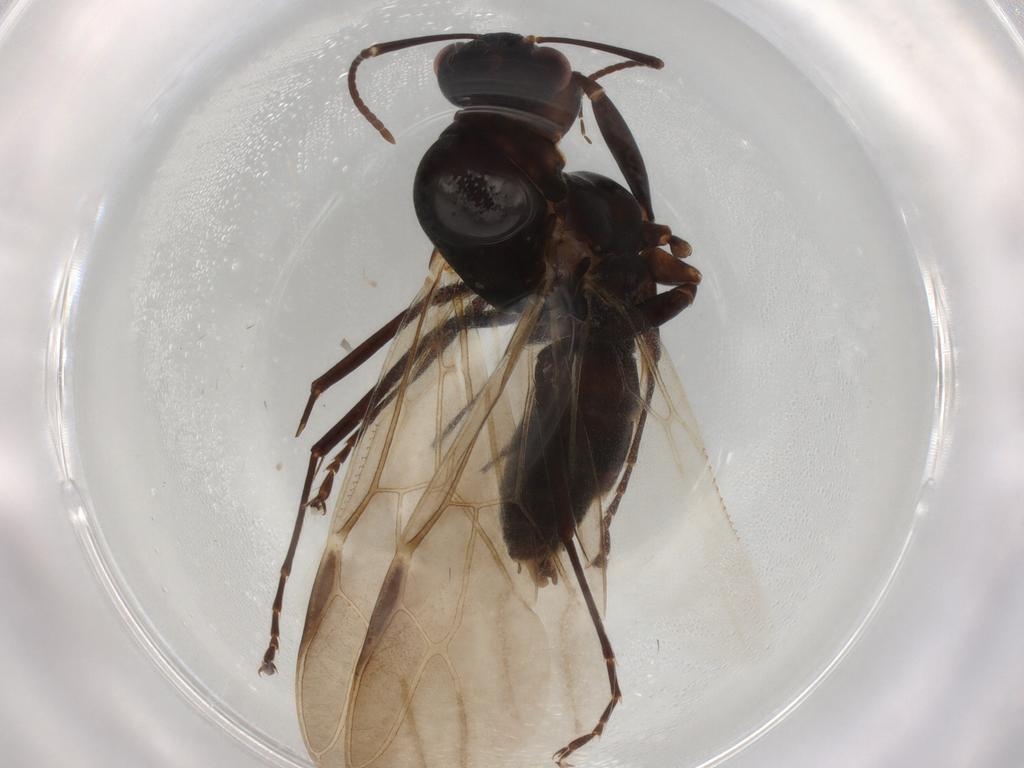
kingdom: Animalia
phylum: Arthropoda
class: Insecta
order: Hymenoptera
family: Formicidae
